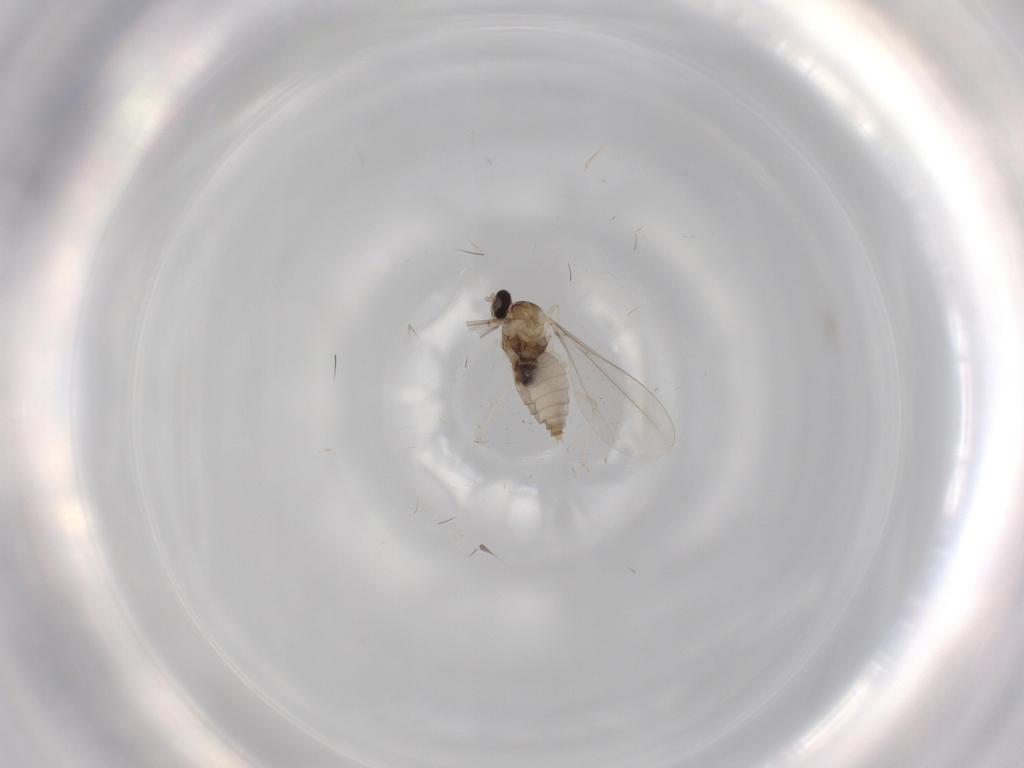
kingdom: Animalia
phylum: Arthropoda
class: Insecta
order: Diptera
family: Cecidomyiidae
